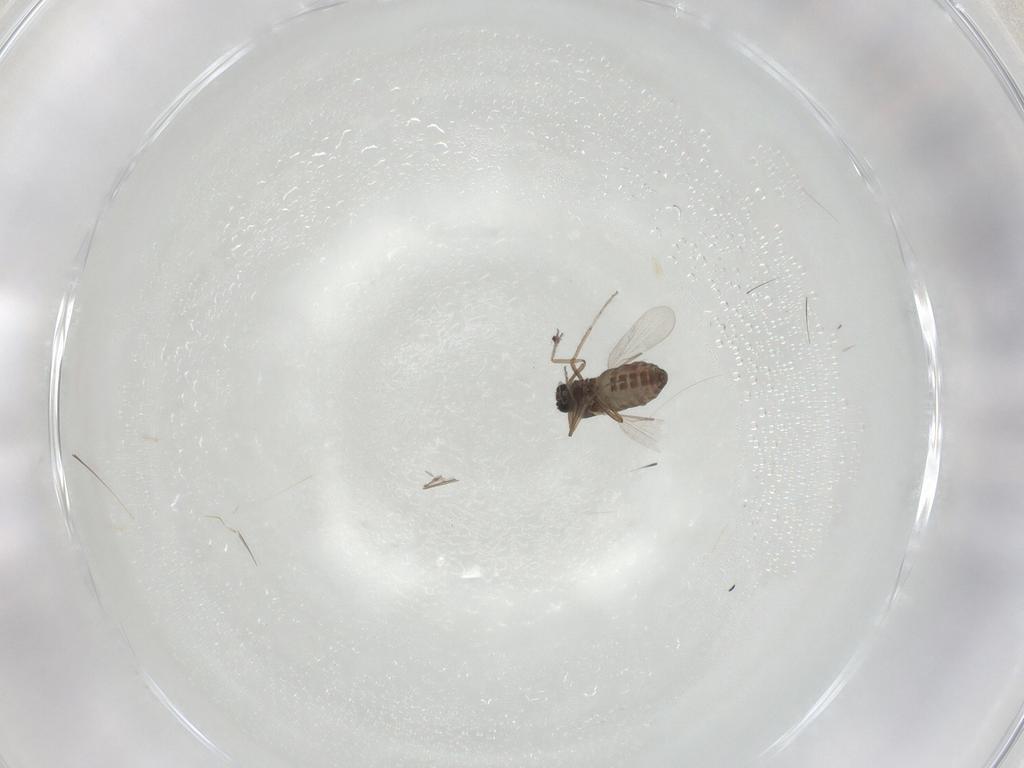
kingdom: Animalia
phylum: Arthropoda
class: Insecta
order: Diptera
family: Ceratopogonidae
